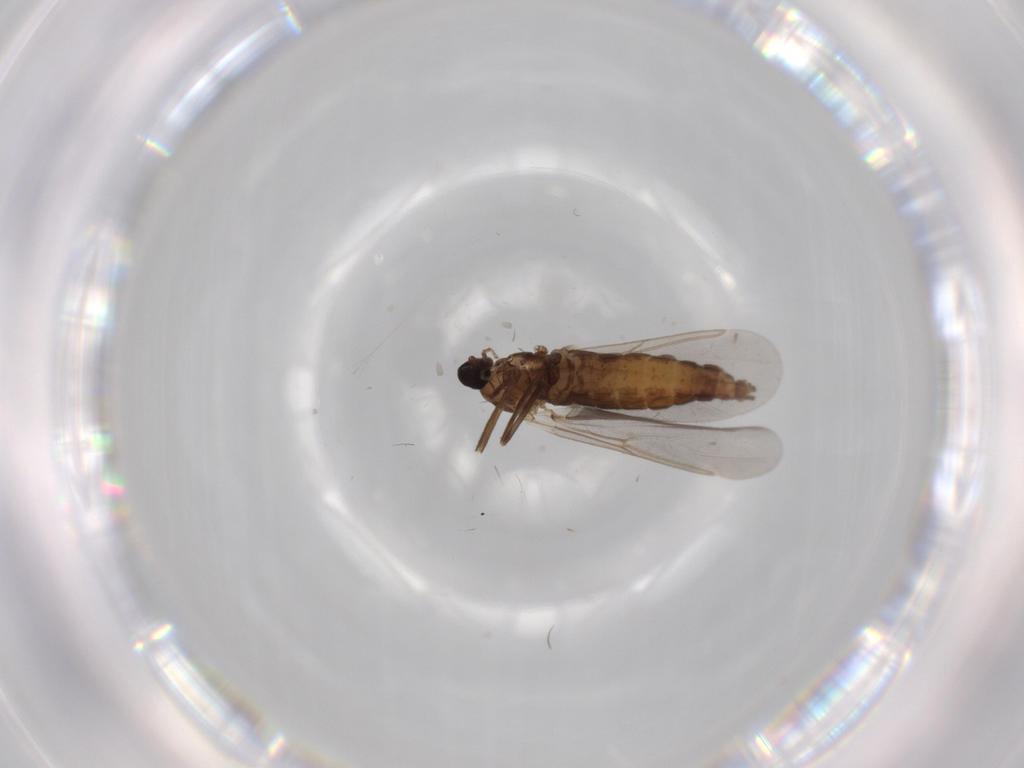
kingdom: Animalia
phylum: Arthropoda
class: Insecta
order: Diptera
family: Cecidomyiidae
